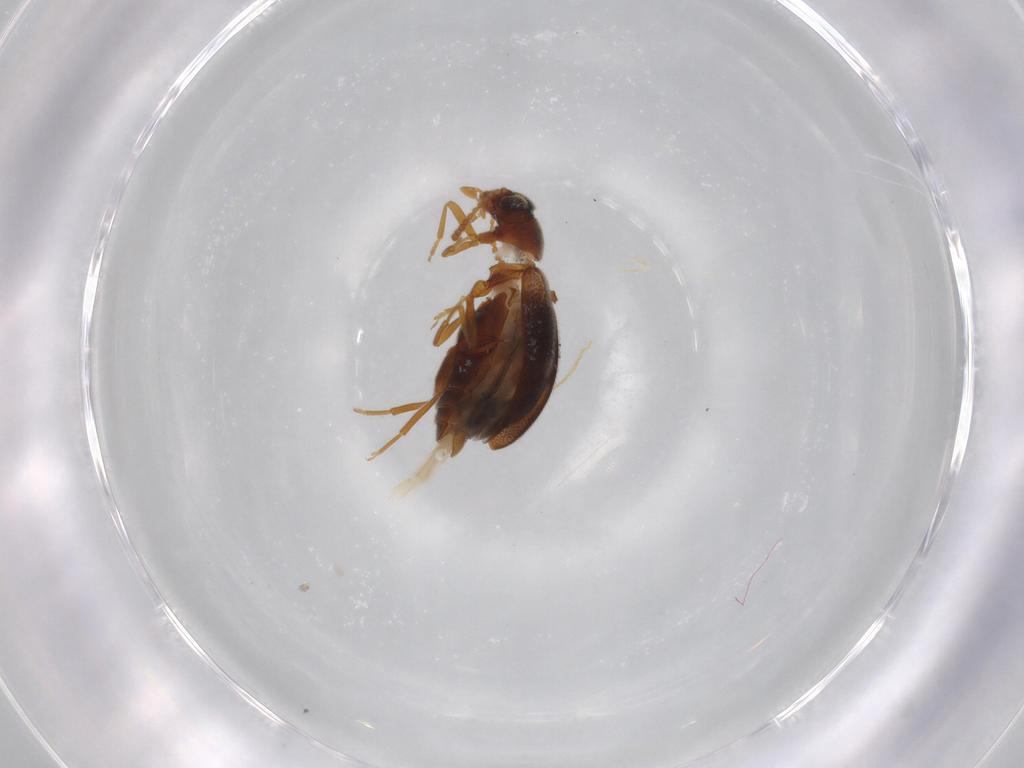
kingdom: Animalia
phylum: Arthropoda
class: Insecta
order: Coleoptera
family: Aderidae
